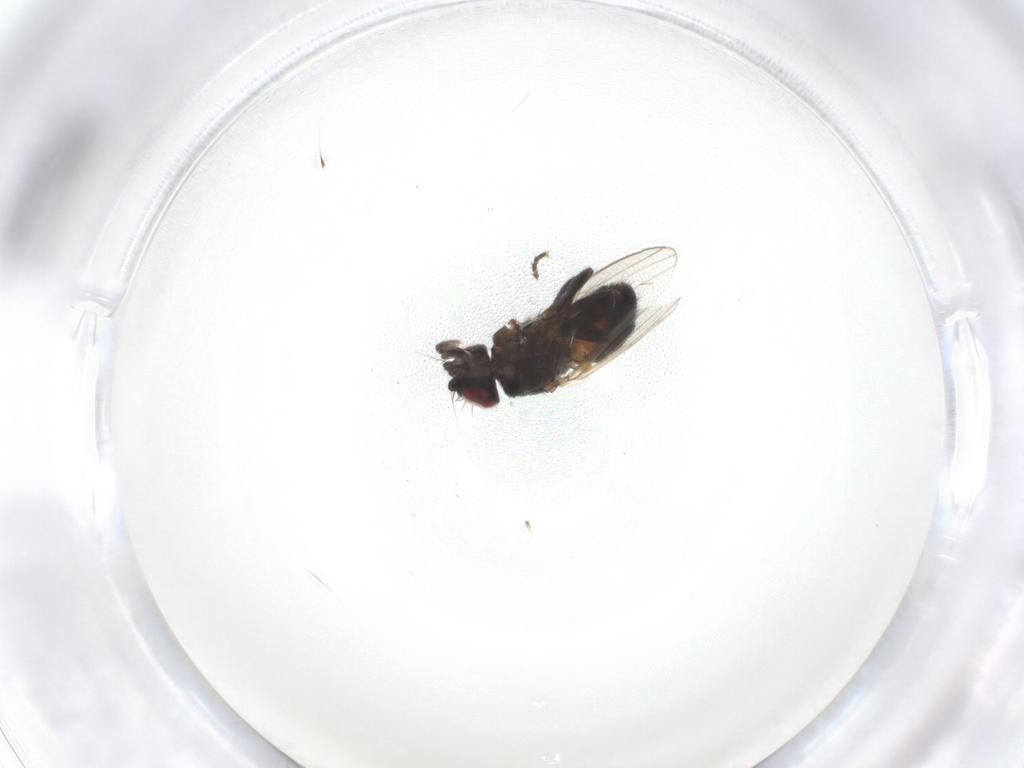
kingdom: Animalia
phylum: Arthropoda
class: Insecta
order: Diptera
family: Milichiidae
